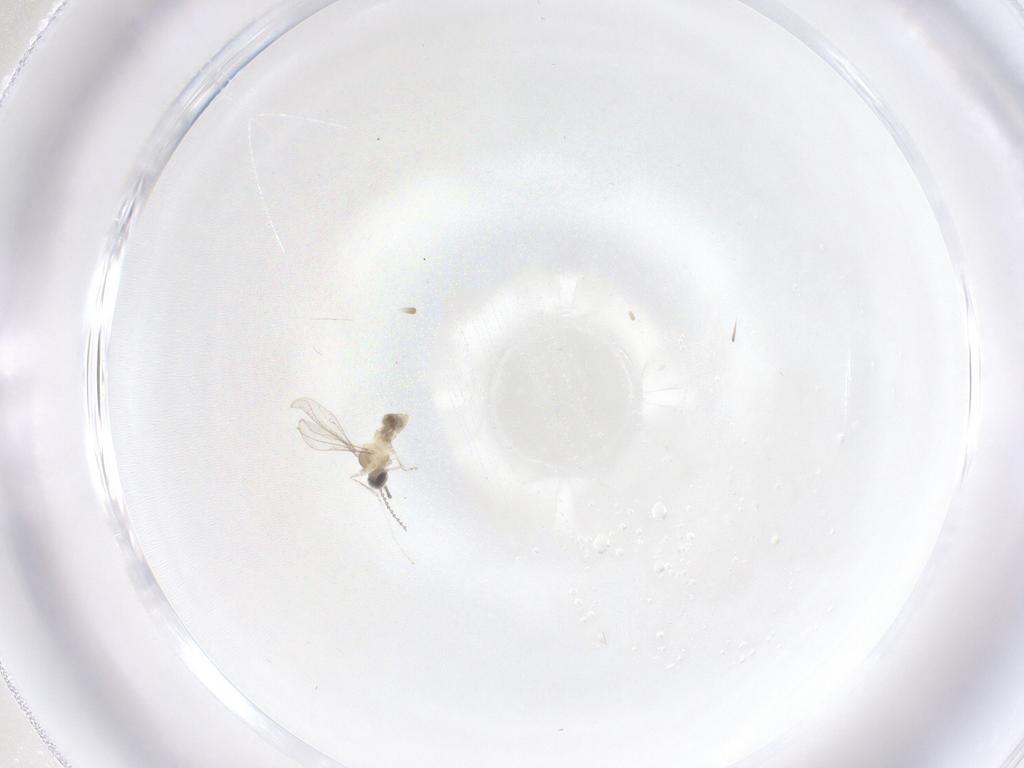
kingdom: Animalia
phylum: Arthropoda
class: Insecta
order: Diptera
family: Cecidomyiidae
